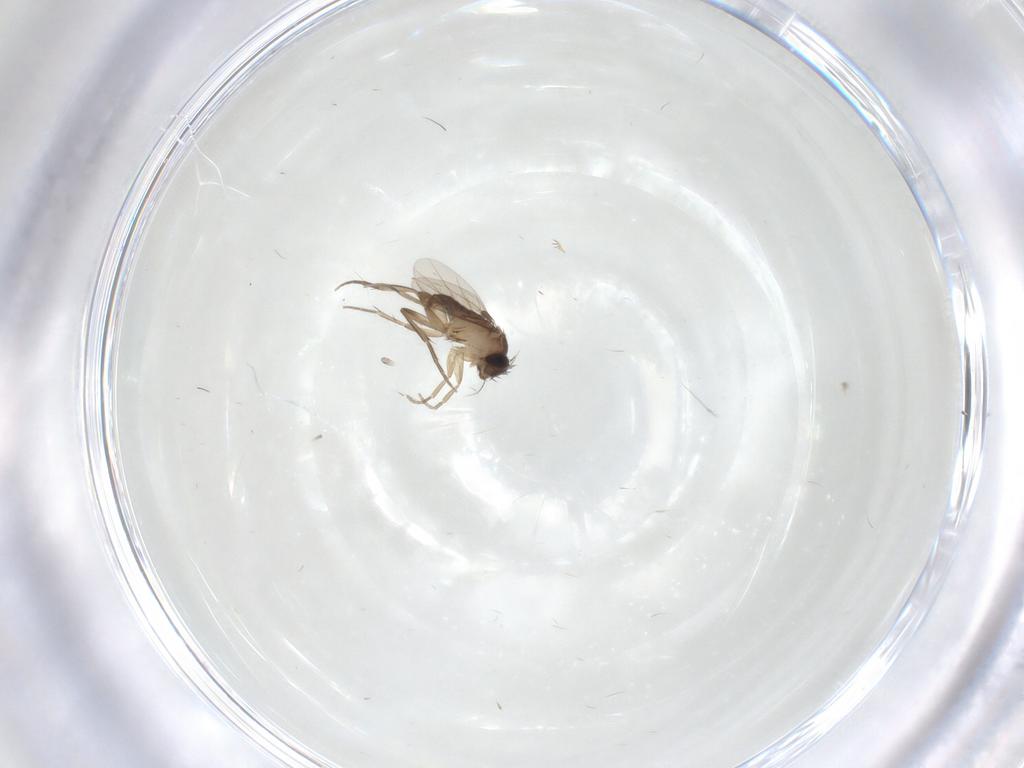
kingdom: Animalia
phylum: Arthropoda
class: Insecta
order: Diptera
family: Phoridae
